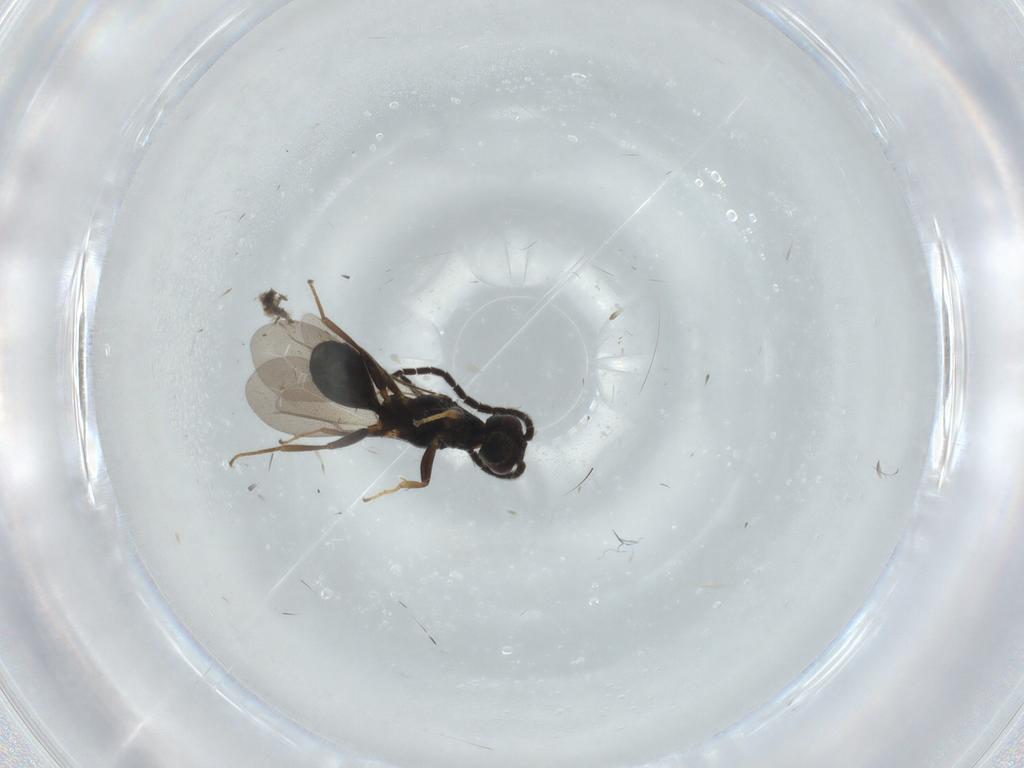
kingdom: Animalia
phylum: Arthropoda
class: Insecta
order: Hymenoptera
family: Bethylidae
